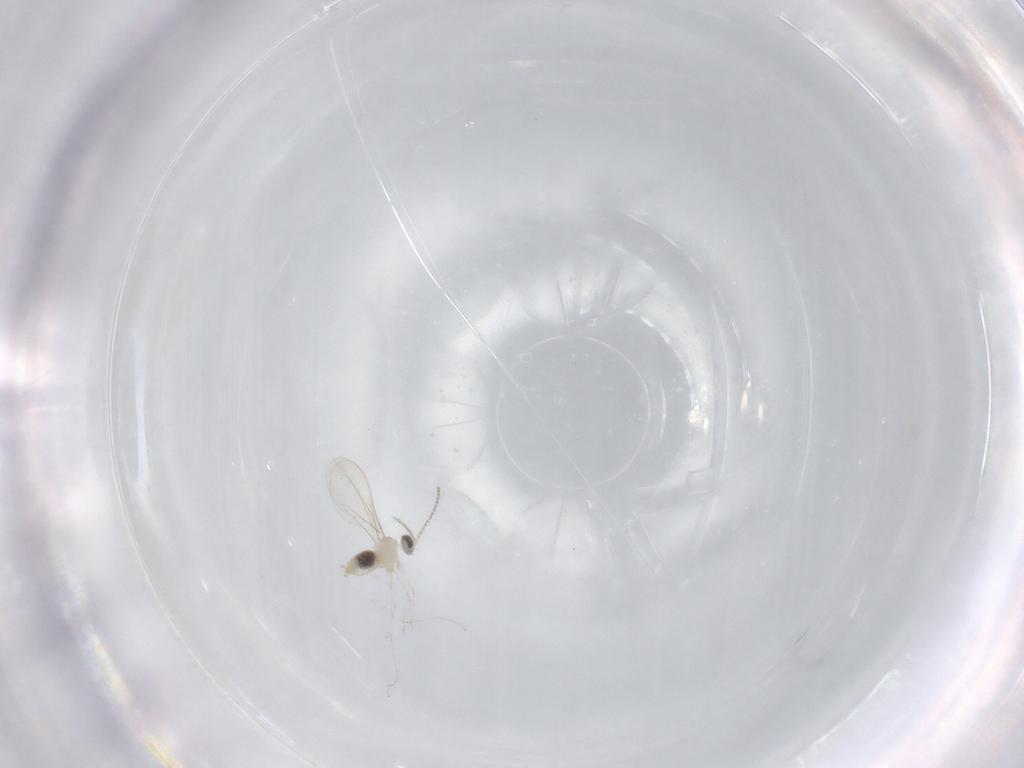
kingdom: Animalia
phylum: Arthropoda
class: Insecta
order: Diptera
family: Cecidomyiidae
